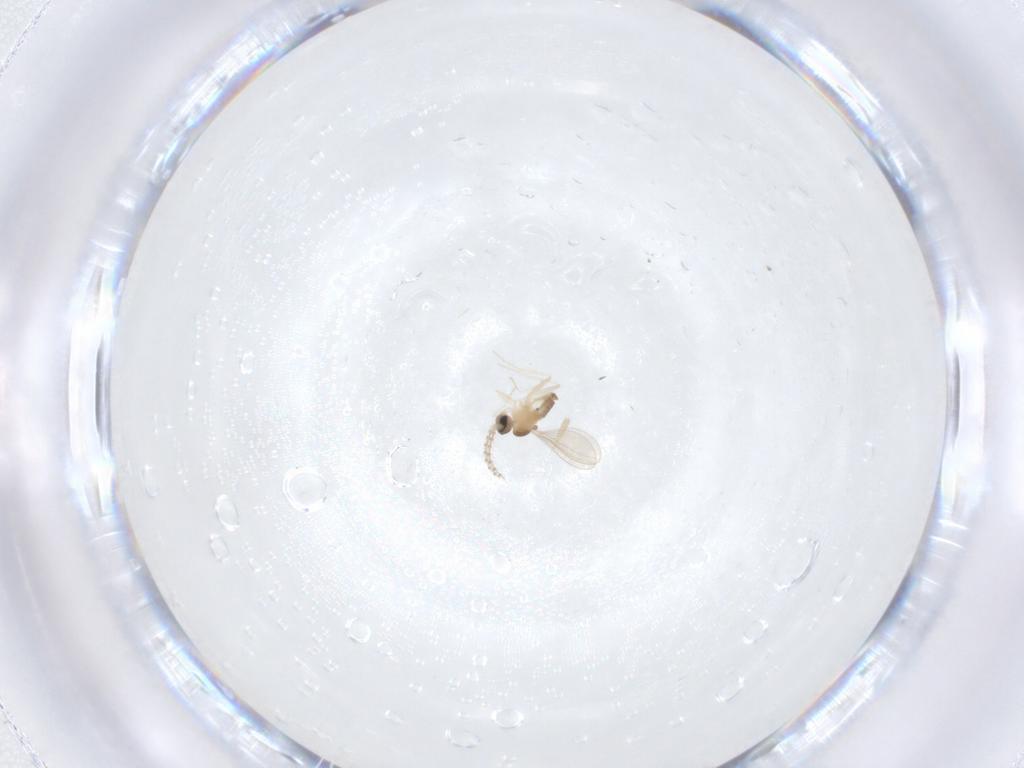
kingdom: Animalia
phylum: Arthropoda
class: Insecta
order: Diptera
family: Cecidomyiidae
